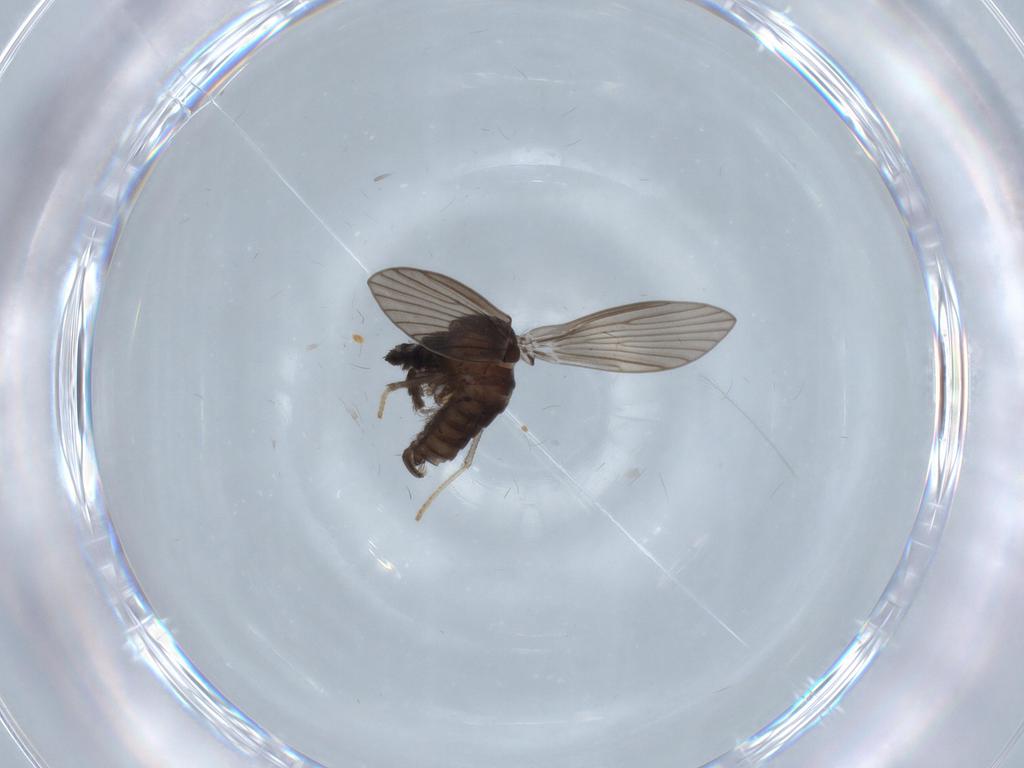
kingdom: Animalia
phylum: Arthropoda
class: Insecta
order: Diptera
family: Chironomidae
